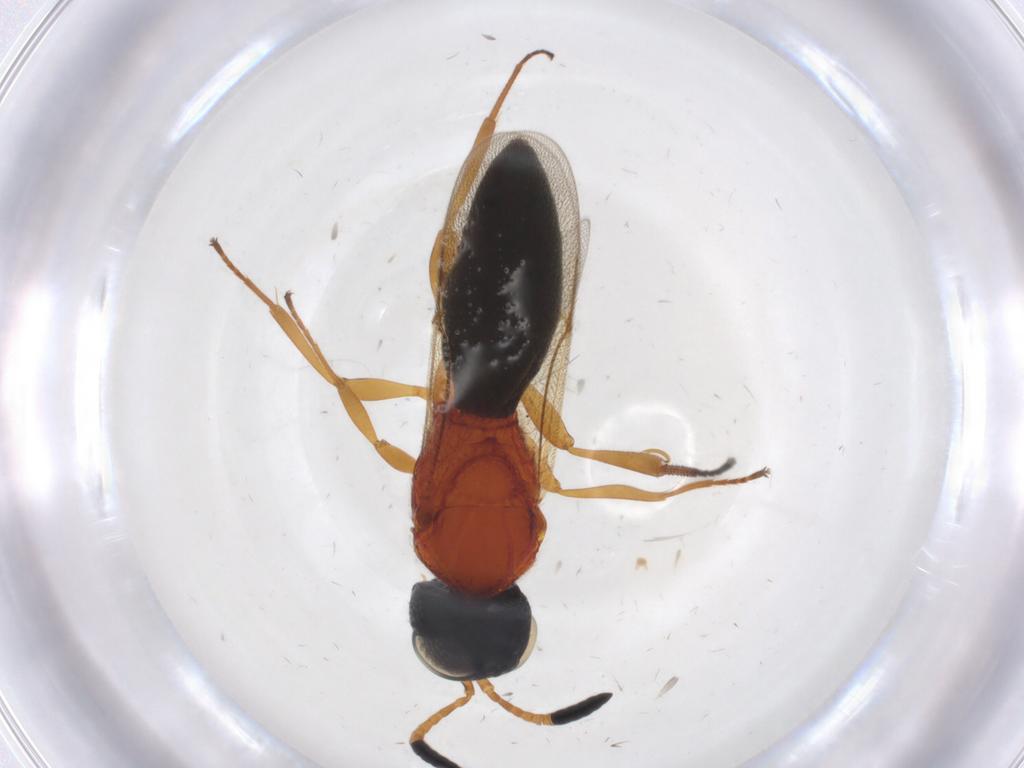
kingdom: Animalia
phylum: Arthropoda
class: Insecta
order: Hymenoptera
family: Scelionidae
